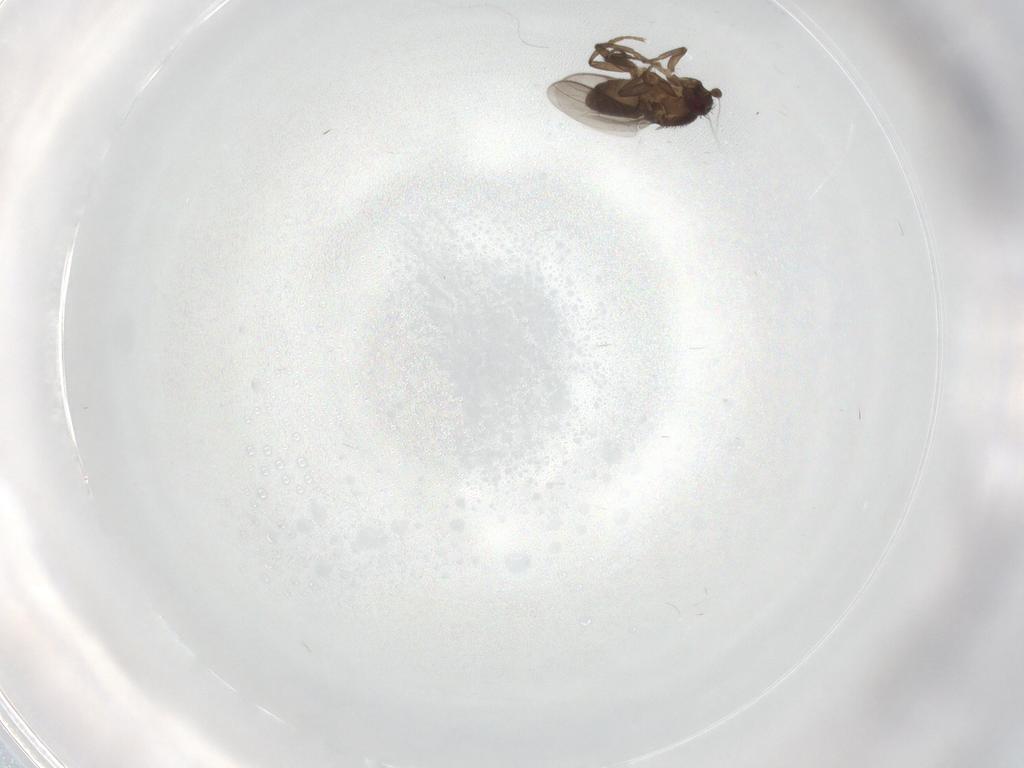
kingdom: Animalia
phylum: Arthropoda
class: Insecta
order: Diptera
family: Sphaeroceridae
